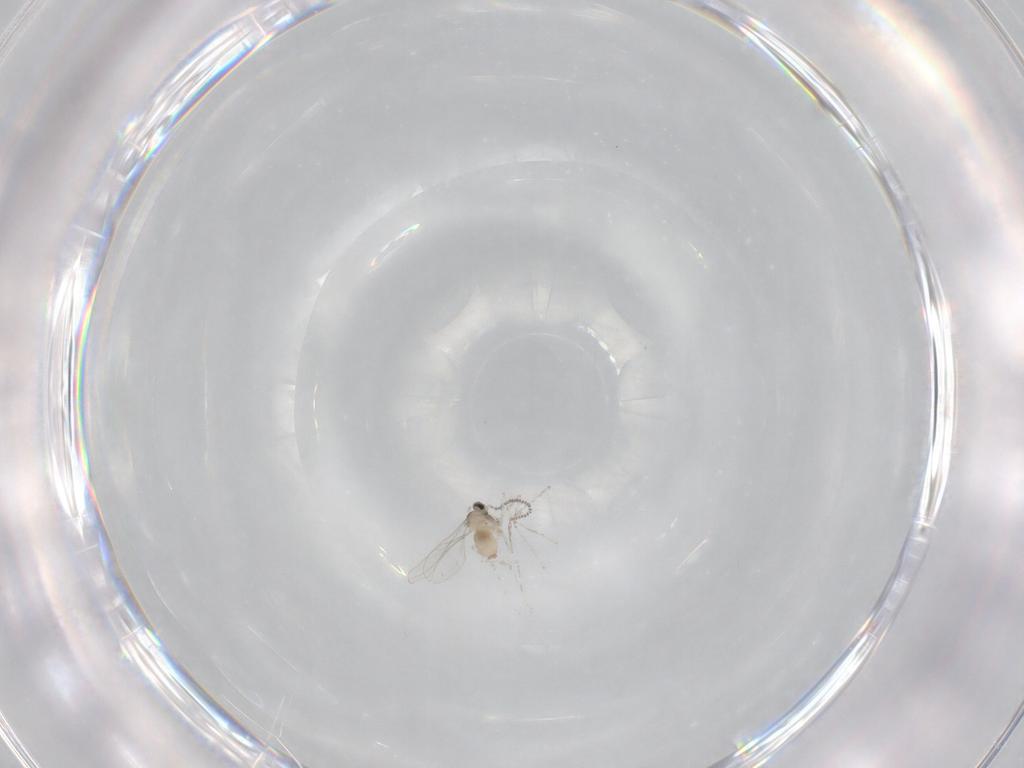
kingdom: Animalia
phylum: Arthropoda
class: Insecta
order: Diptera
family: Cecidomyiidae
